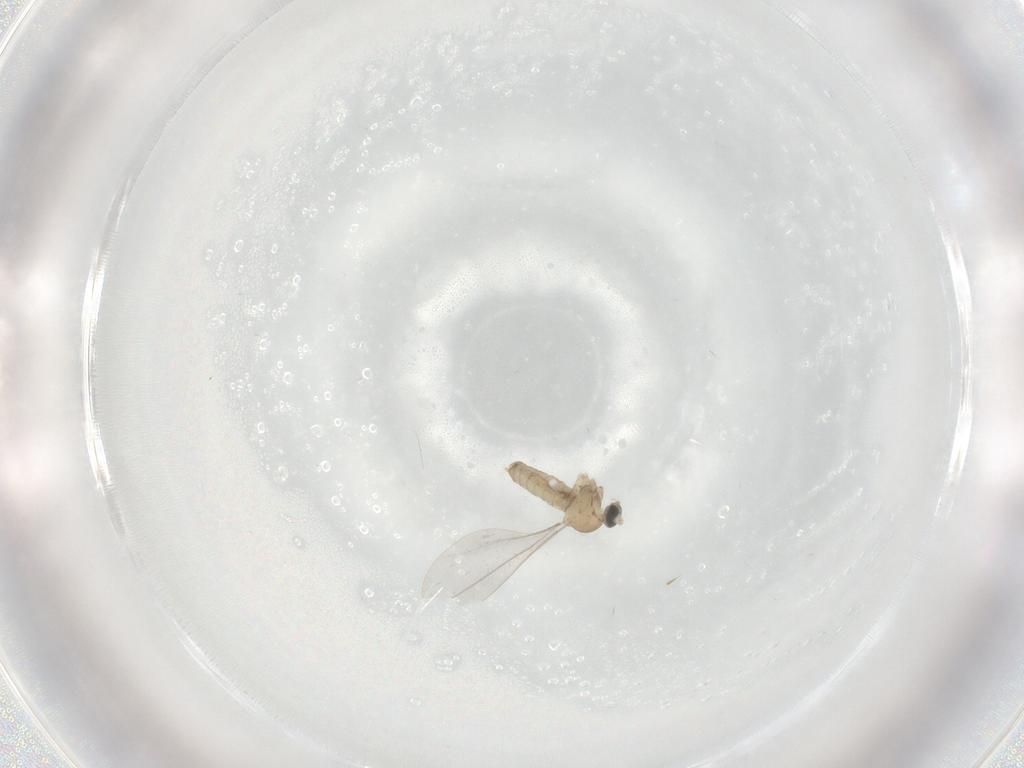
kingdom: Animalia
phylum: Arthropoda
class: Insecta
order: Diptera
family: Cecidomyiidae
